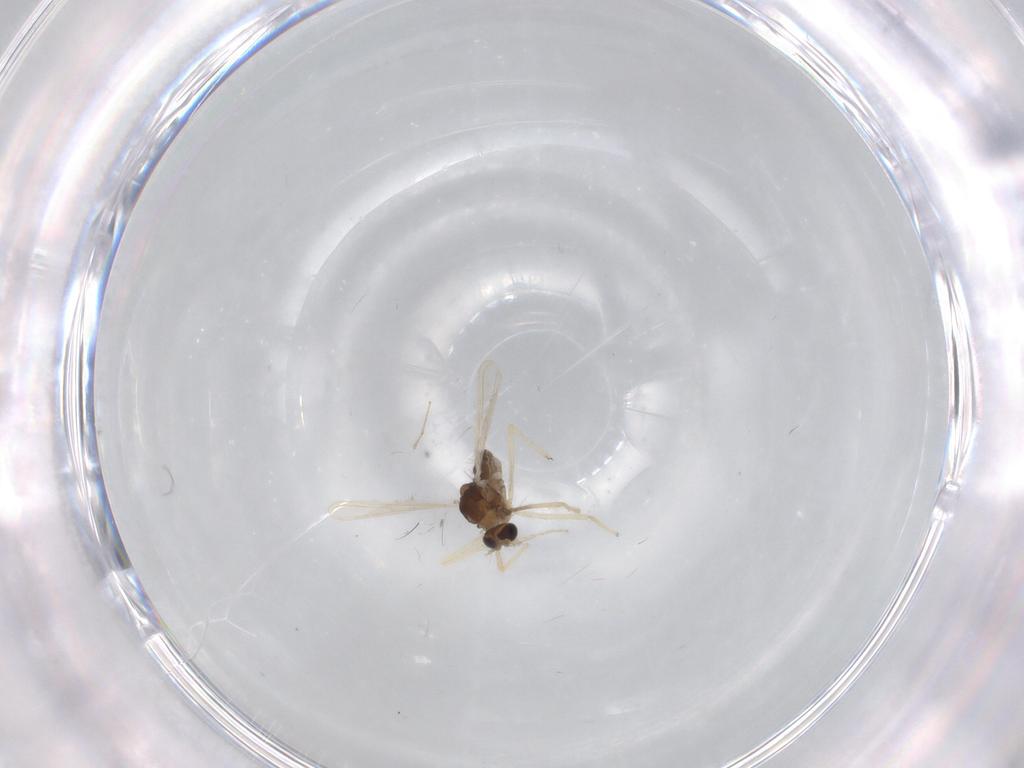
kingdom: Animalia
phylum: Arthropoda
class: Insecta
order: Diptera
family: Chironomidae
